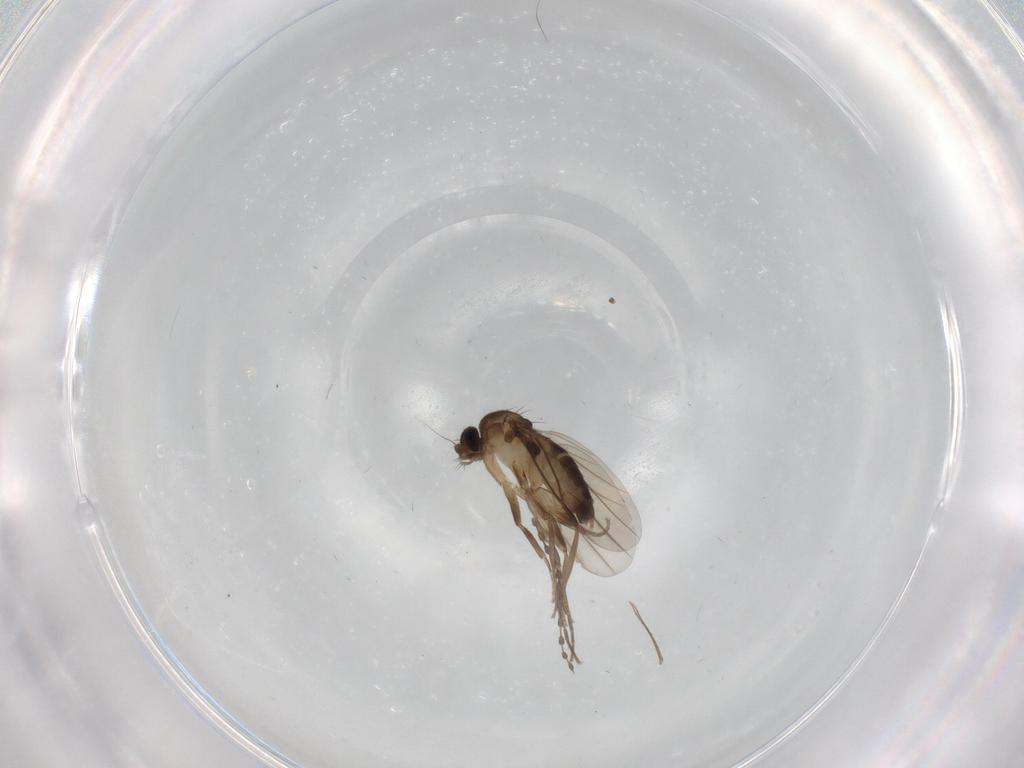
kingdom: Animalia
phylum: Arthropoda
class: Insecta
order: Diptera
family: Phoridae
